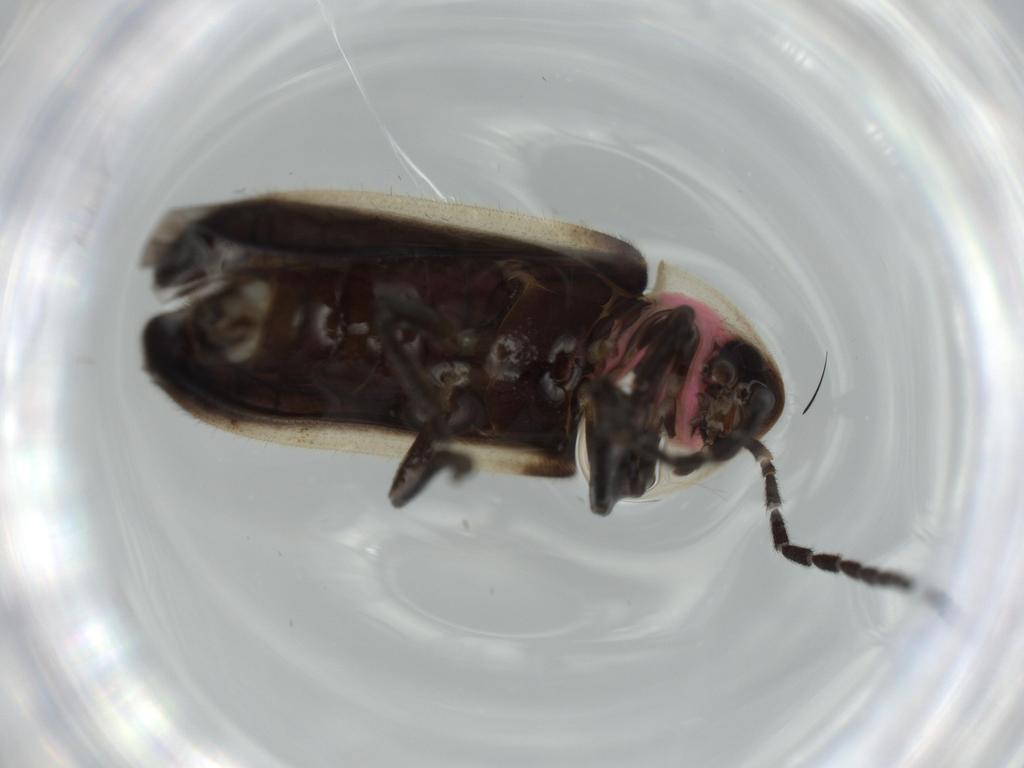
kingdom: Animalia
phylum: Arthropoda
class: Insecta
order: Coleoptera
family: Lampyridae
